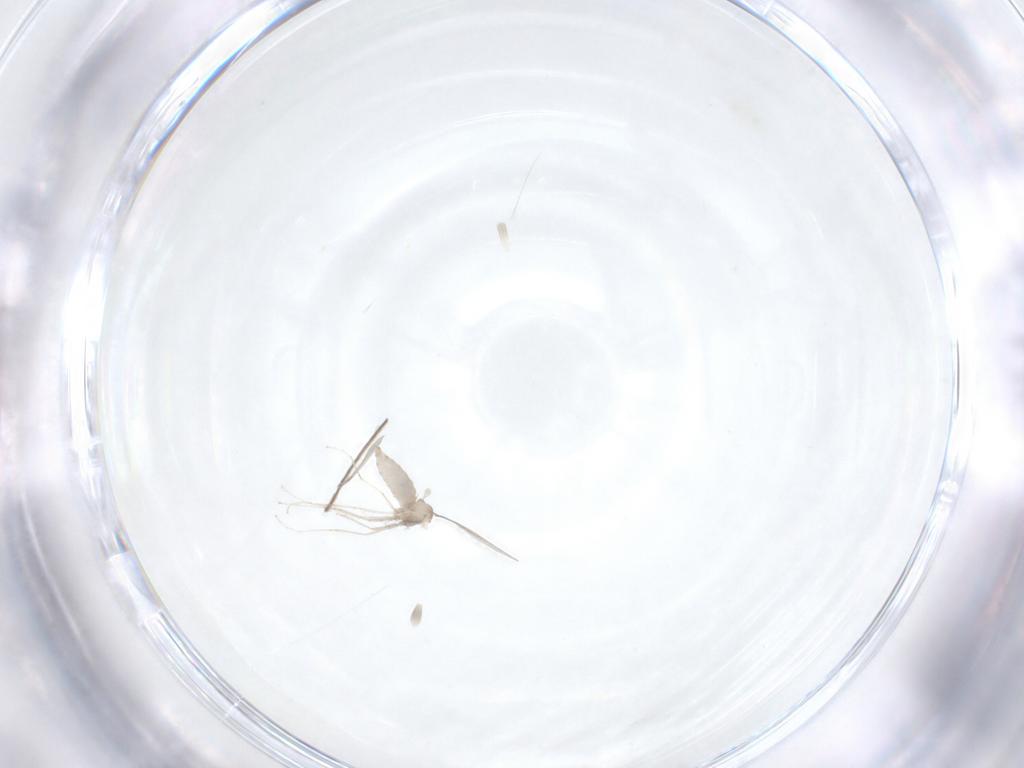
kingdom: Animalia
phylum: Arthropoda
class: Insecta
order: Diptera
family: Cecidomyiidae
